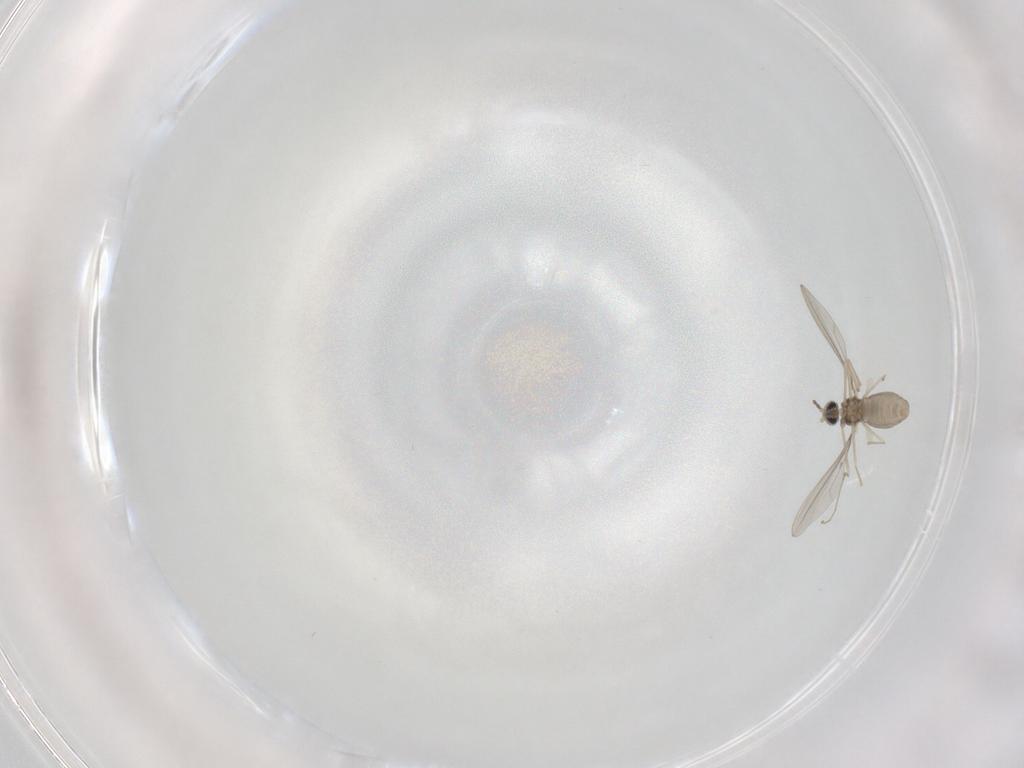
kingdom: Animalia
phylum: Arthropoda
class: Insecta
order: Diptera
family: Cecidomyiidae
